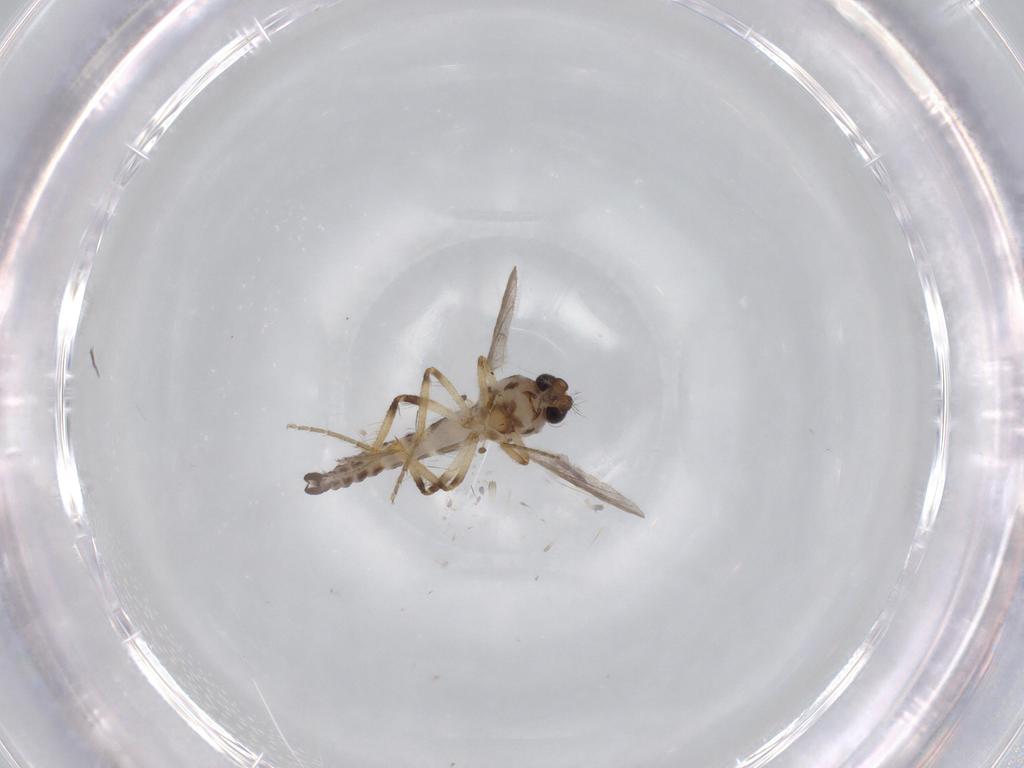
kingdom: Animalia
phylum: Arthropoda
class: Insecta
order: Diptera
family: Ceratopogonidae
